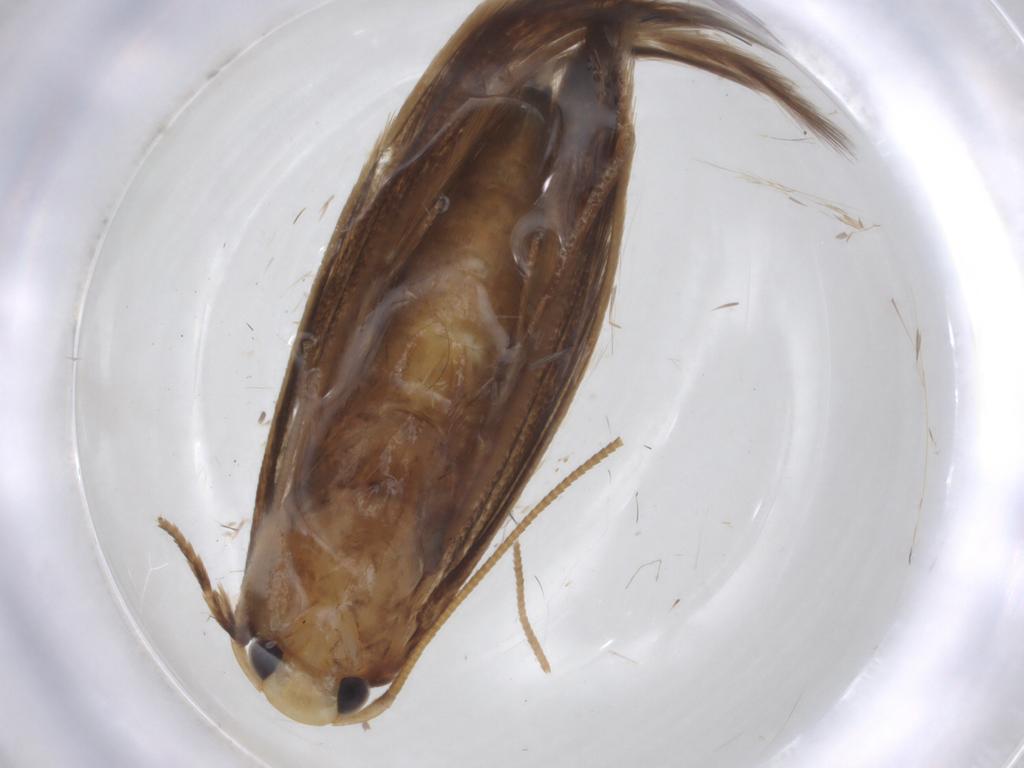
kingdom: Animalia
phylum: Arthropoda
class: Insecta
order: Lepidoptera
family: Tineidae
